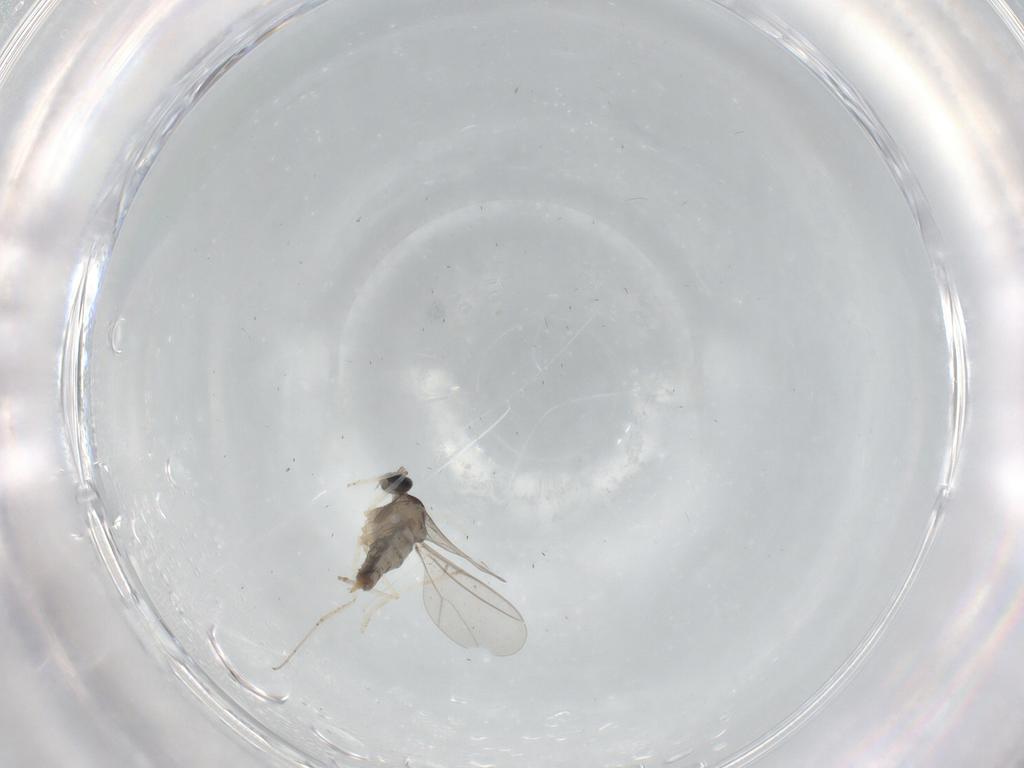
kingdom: Animalia
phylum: Arthropoda
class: Insecta
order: Diptera
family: Cecidomyiidae
